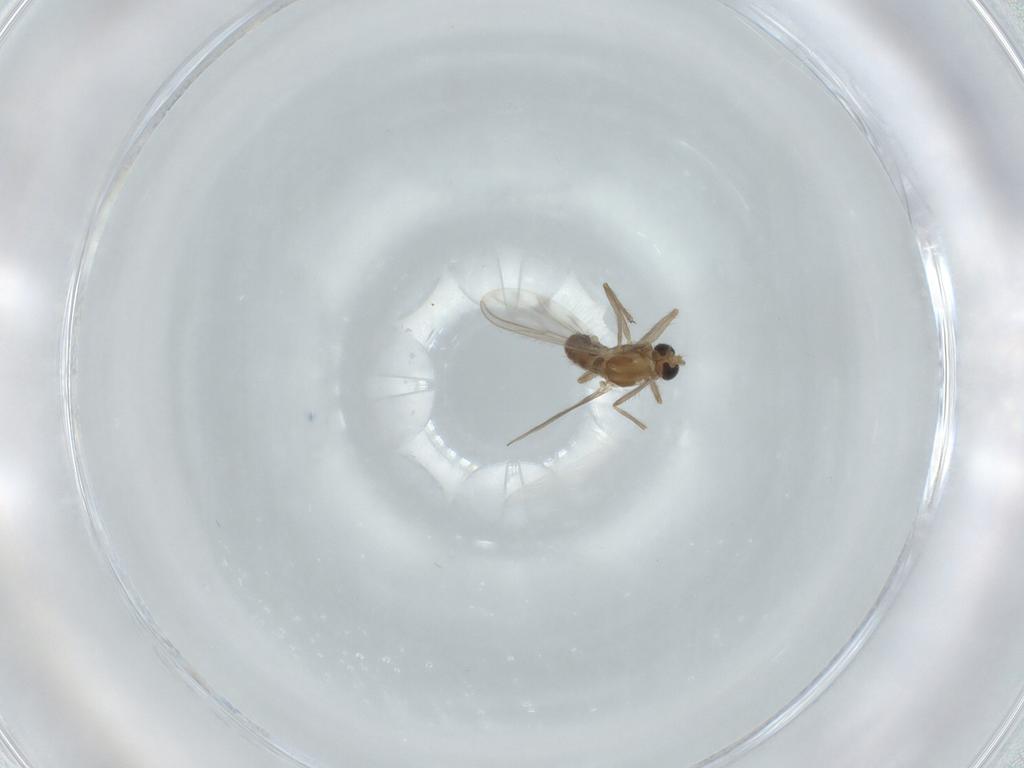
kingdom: Animalia
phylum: Arthropoda
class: Insecta
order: Diptera
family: Chironomidae
